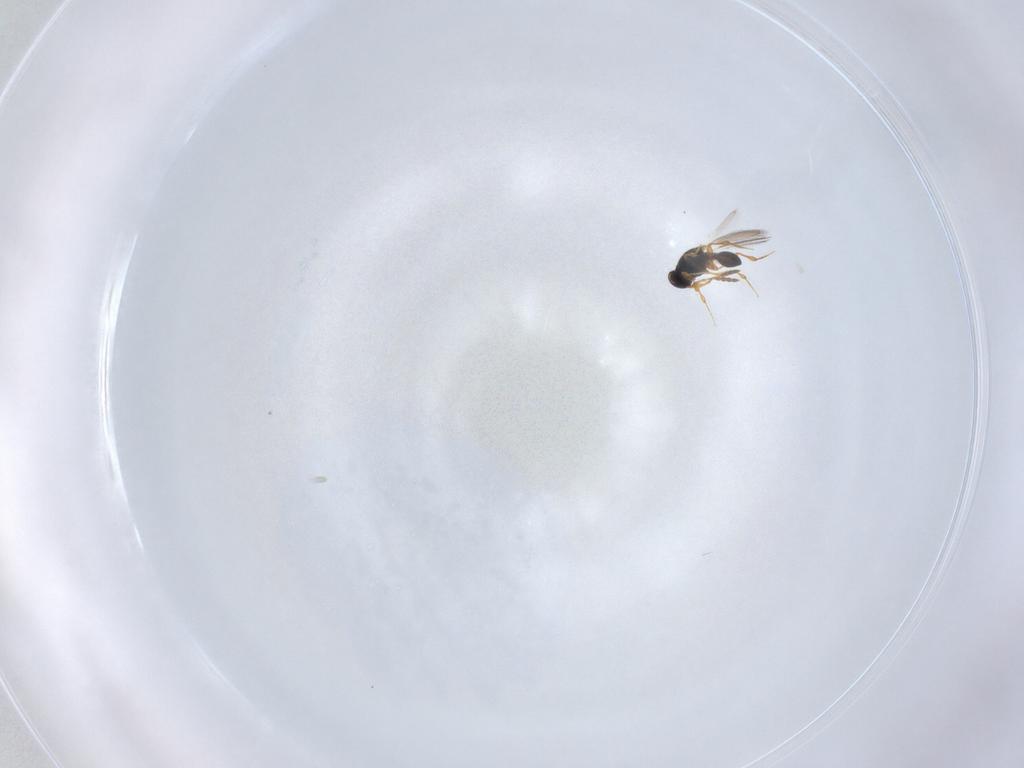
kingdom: Animalia
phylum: Arthropoda
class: Insecta
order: Hymenoptera
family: Platygastridae
